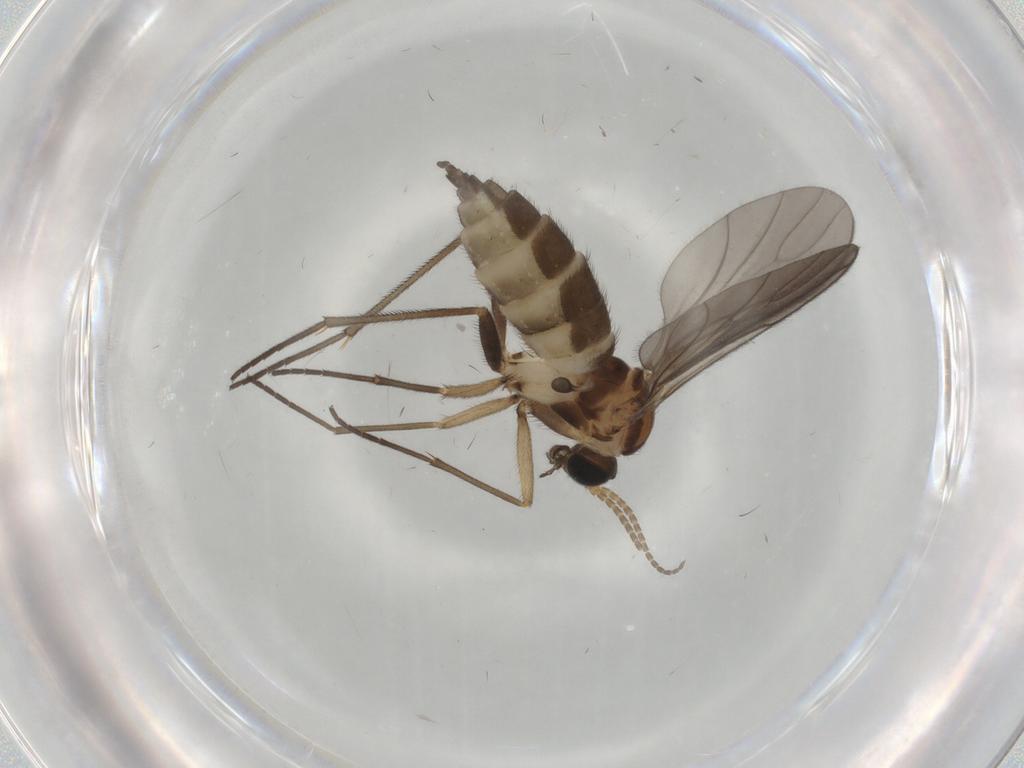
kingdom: Animalia
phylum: Arthropoda
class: Insecta
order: Diptera
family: Sciaridae
